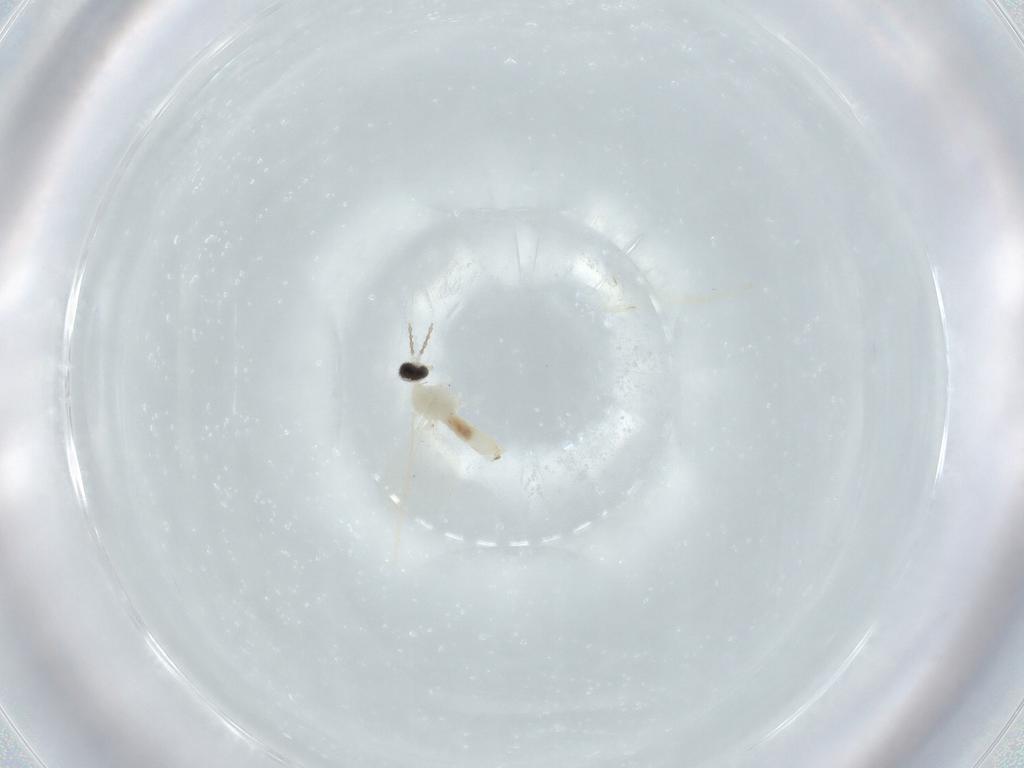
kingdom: Animalia
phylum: Arthropoda
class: Insecta
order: Diptera
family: Cecidomyiidae
